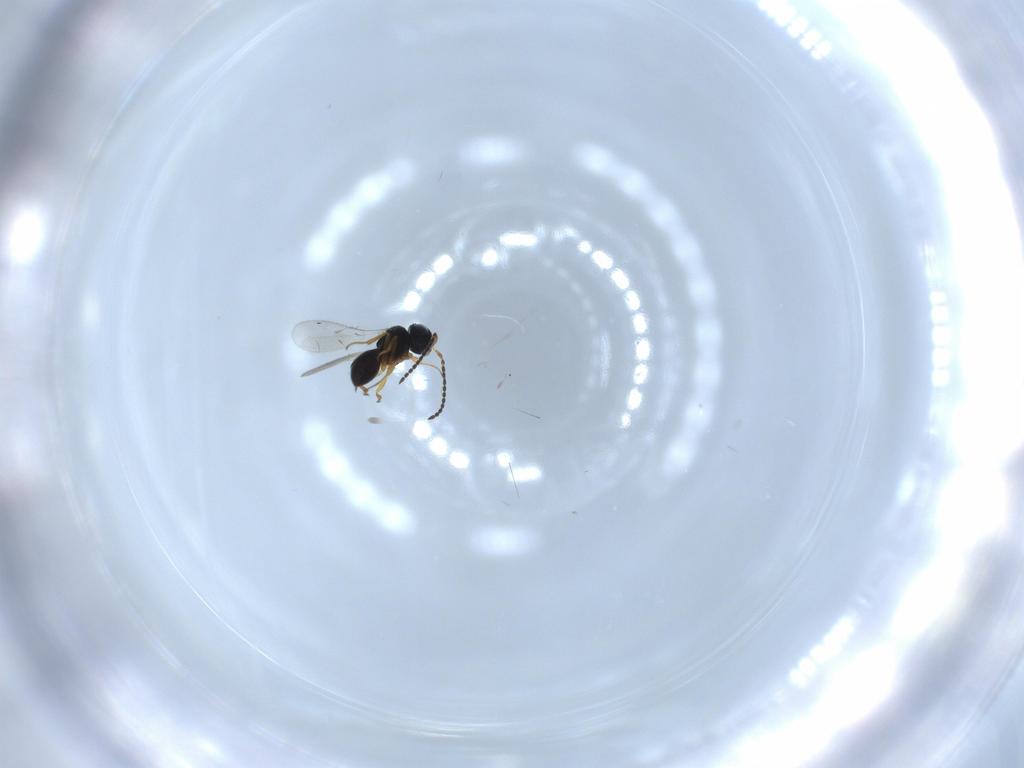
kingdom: Animalia
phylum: Arthropoda
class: Insecta
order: Hymenoptera
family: Scelionidae
